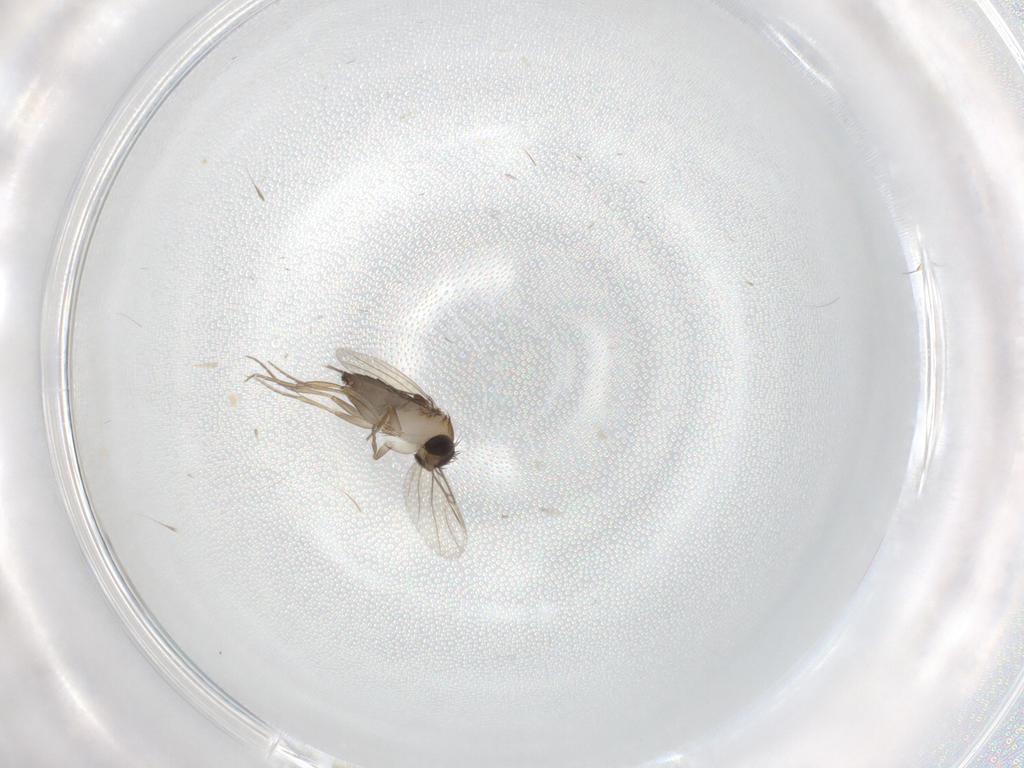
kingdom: Animalia
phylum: Arthropoda
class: Insecta
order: Diptera
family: Phoridae
